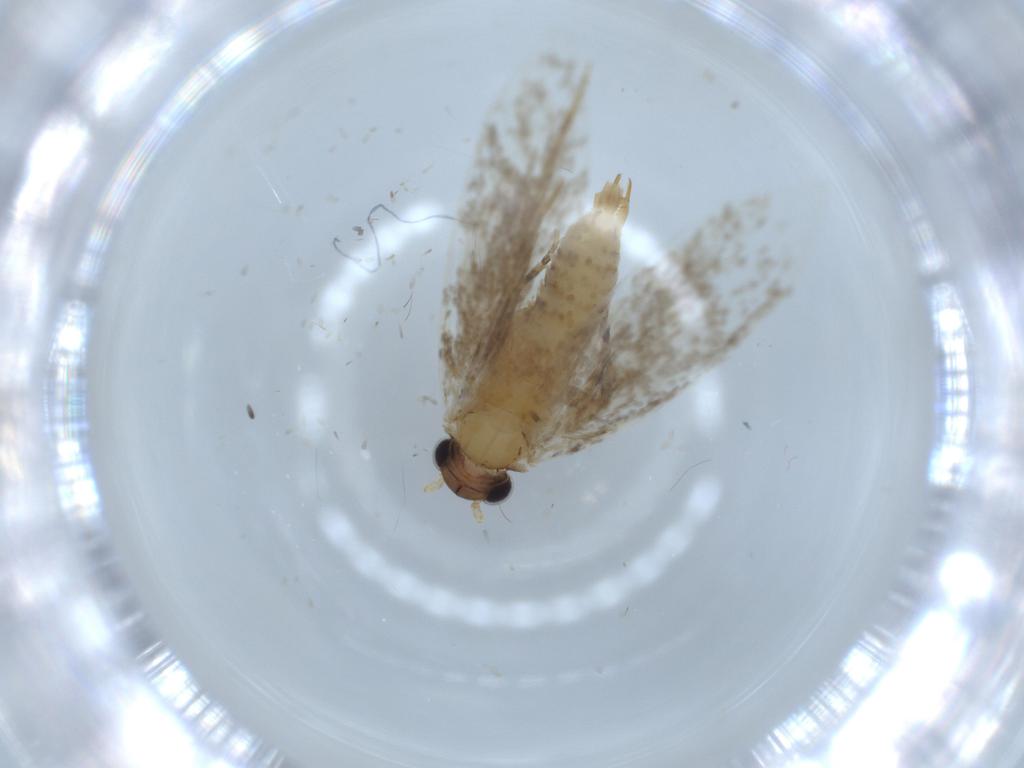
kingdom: Animalia
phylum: Arthropoda
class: Insecta
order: Lepidoptera
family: Tineidae
